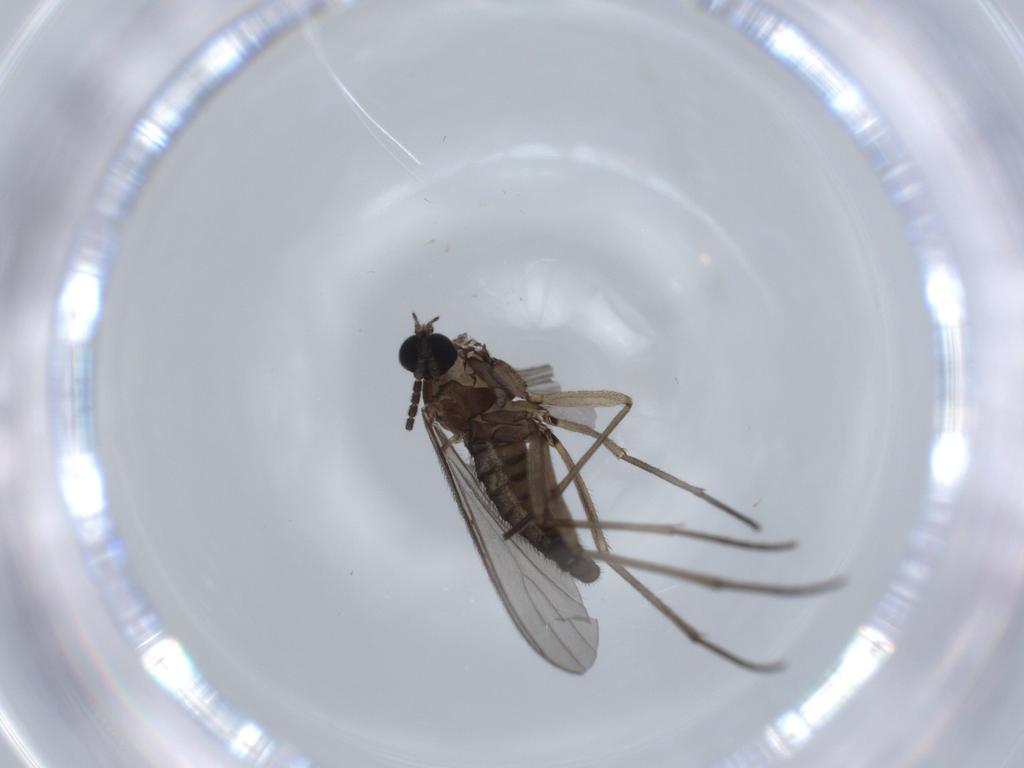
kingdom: Animalia
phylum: Arthropoda
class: Insecta
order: Diptera
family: Sciaridae
